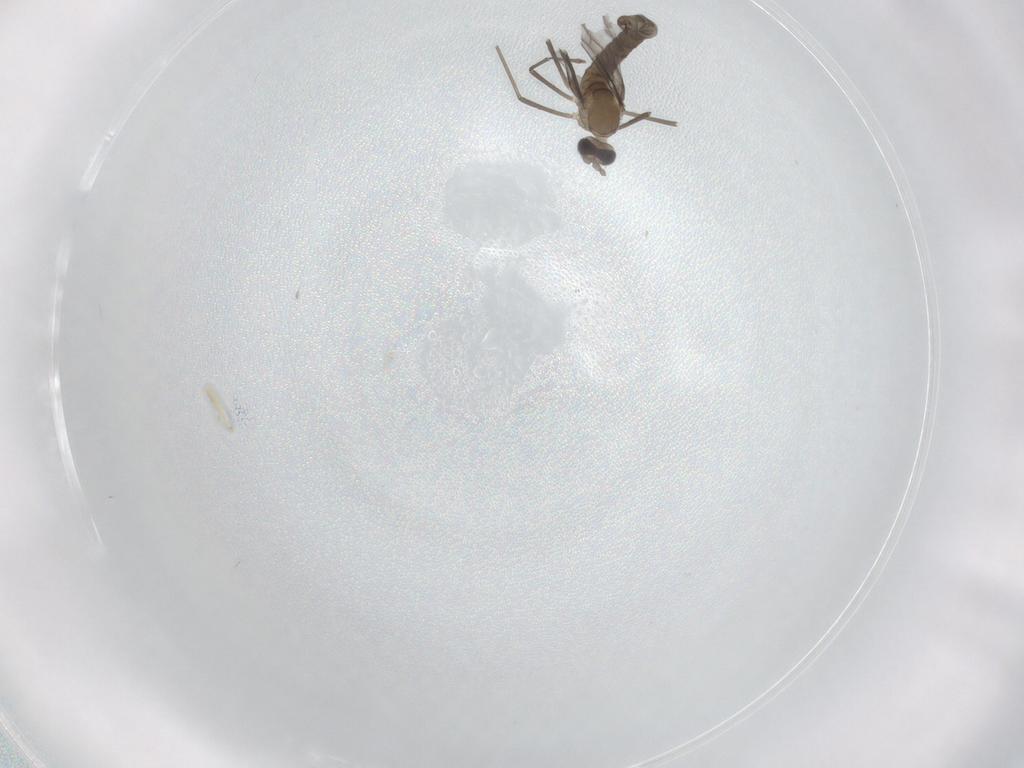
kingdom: Animalia
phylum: Arthropoda
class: Insecta
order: Diptera
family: Cecidomyiidae
